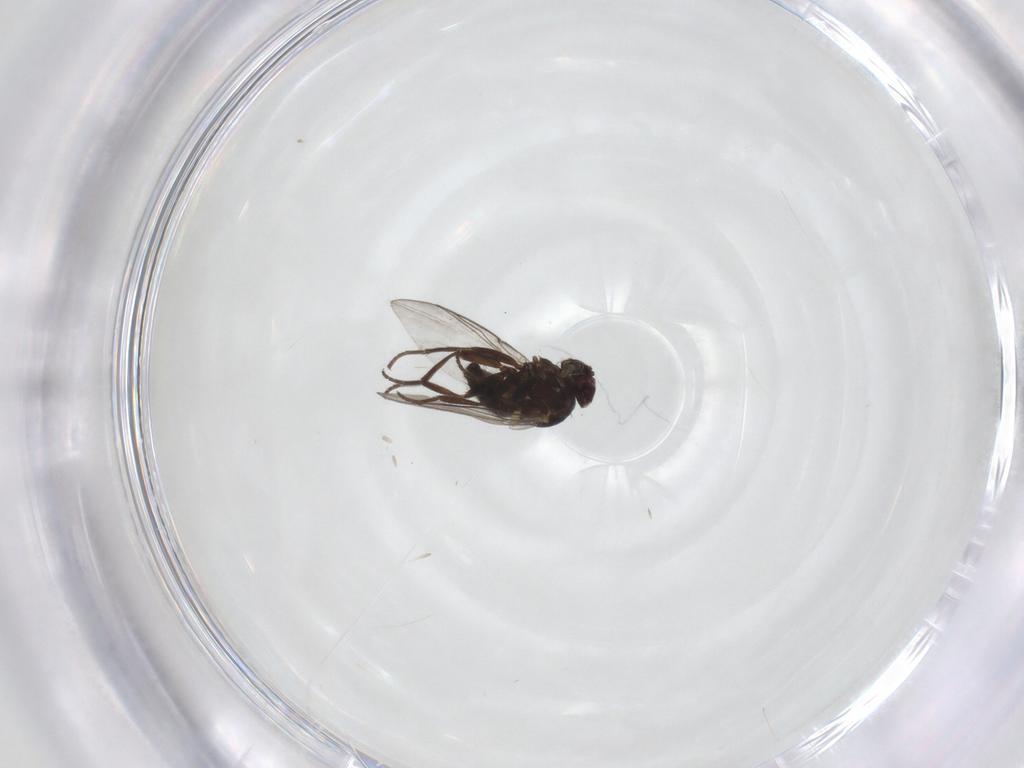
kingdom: Animalia
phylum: Arthropoda
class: Insecta
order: Diptera
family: Agromyzidae
